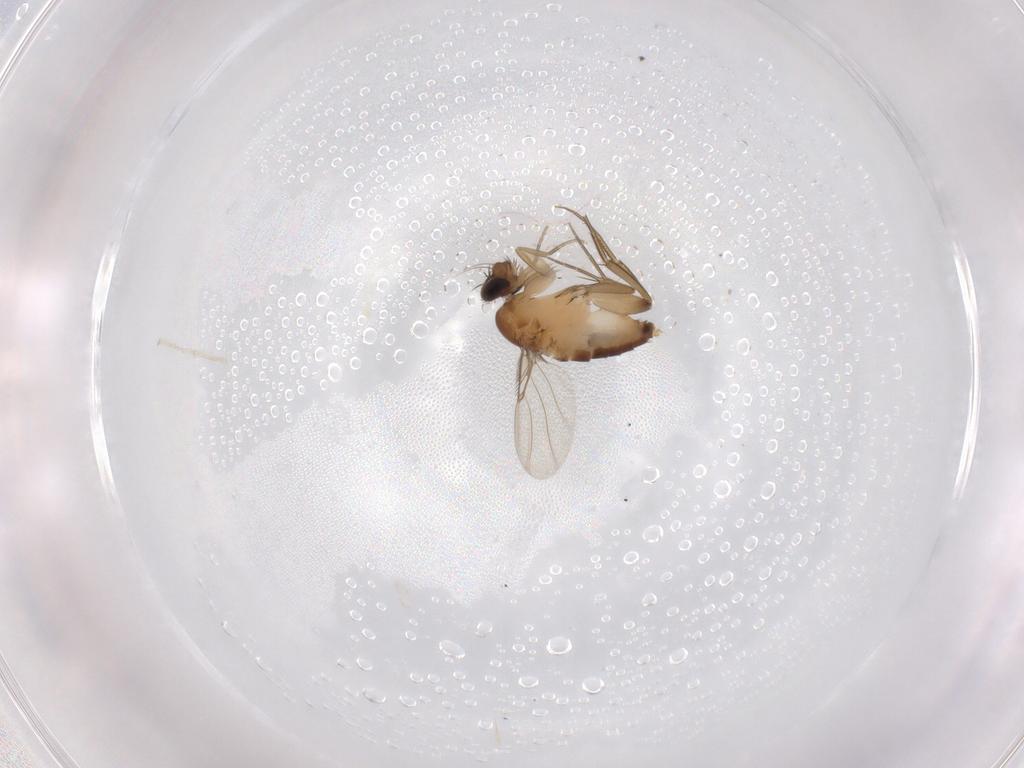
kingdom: Animalia
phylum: Arthropoda
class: Insecta
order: Diptera
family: Phoridae
